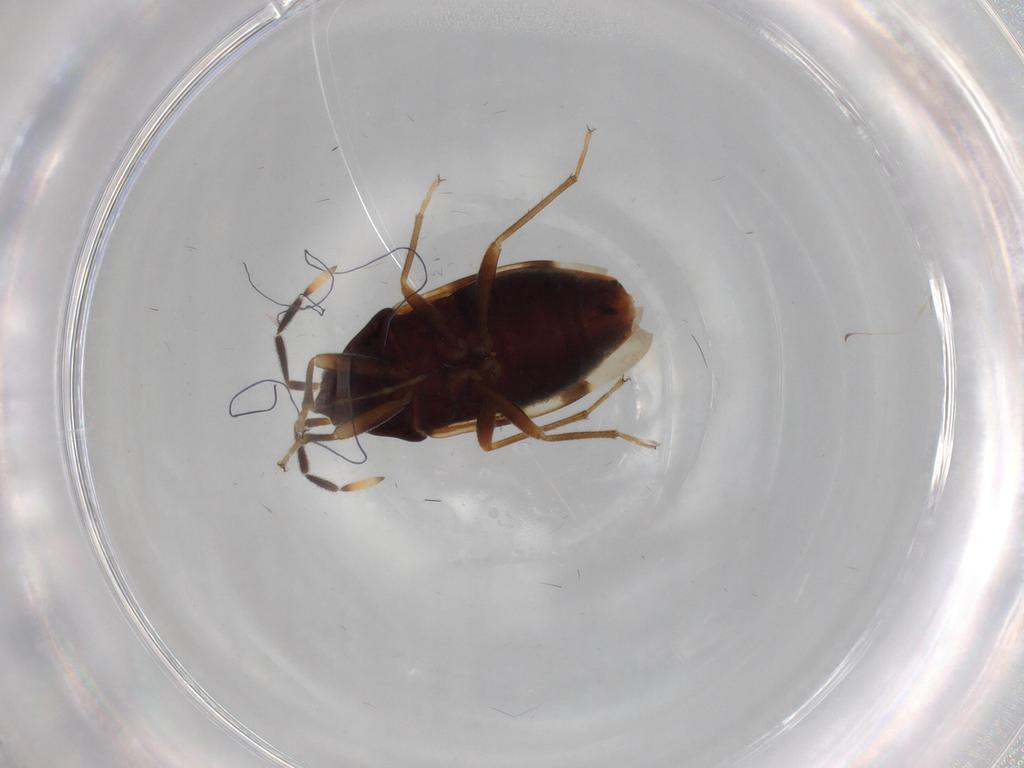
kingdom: Animalia
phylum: Arthropoda
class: Insecta
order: Hemiptera
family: Rhyparochromidae
